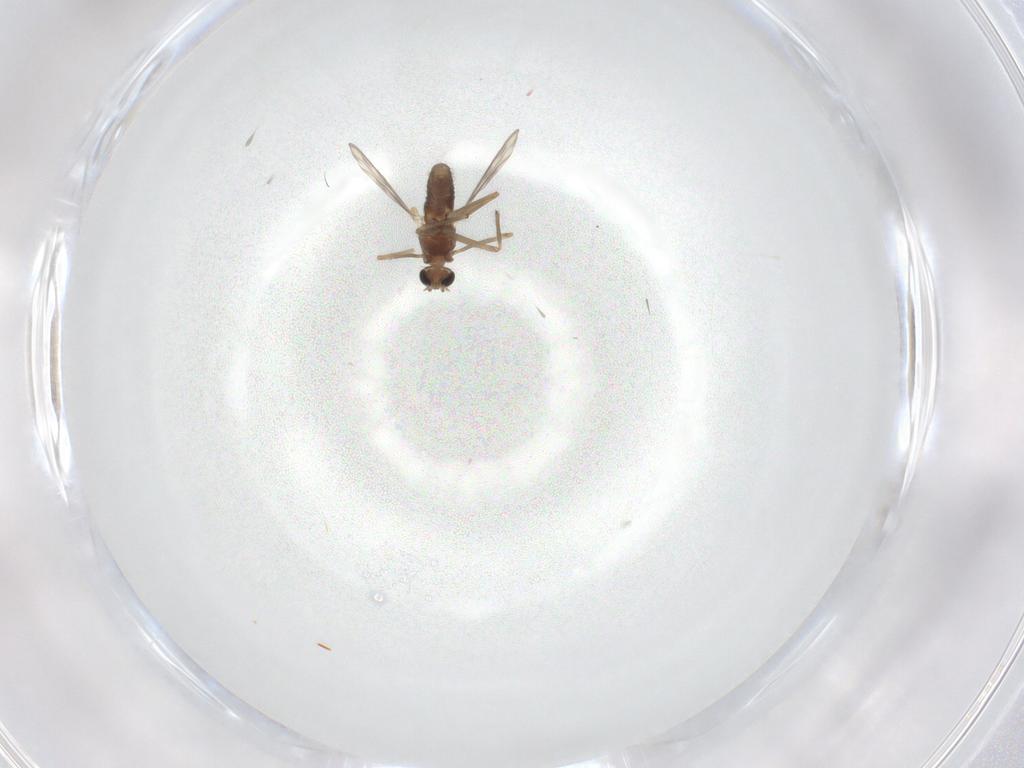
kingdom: Animalia
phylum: Arthropoda
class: Insecta
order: Diptera
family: Chironomidae
